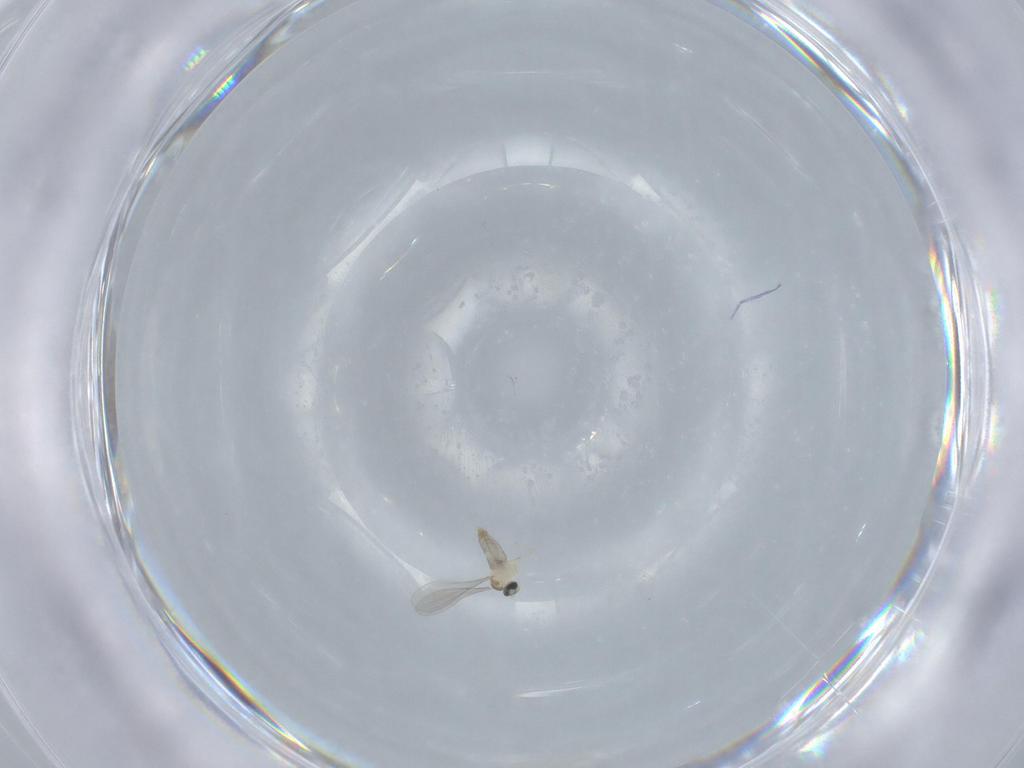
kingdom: Animalia
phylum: Arthropoda
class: Insecta
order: Diptera
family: Cecidomyiidae
